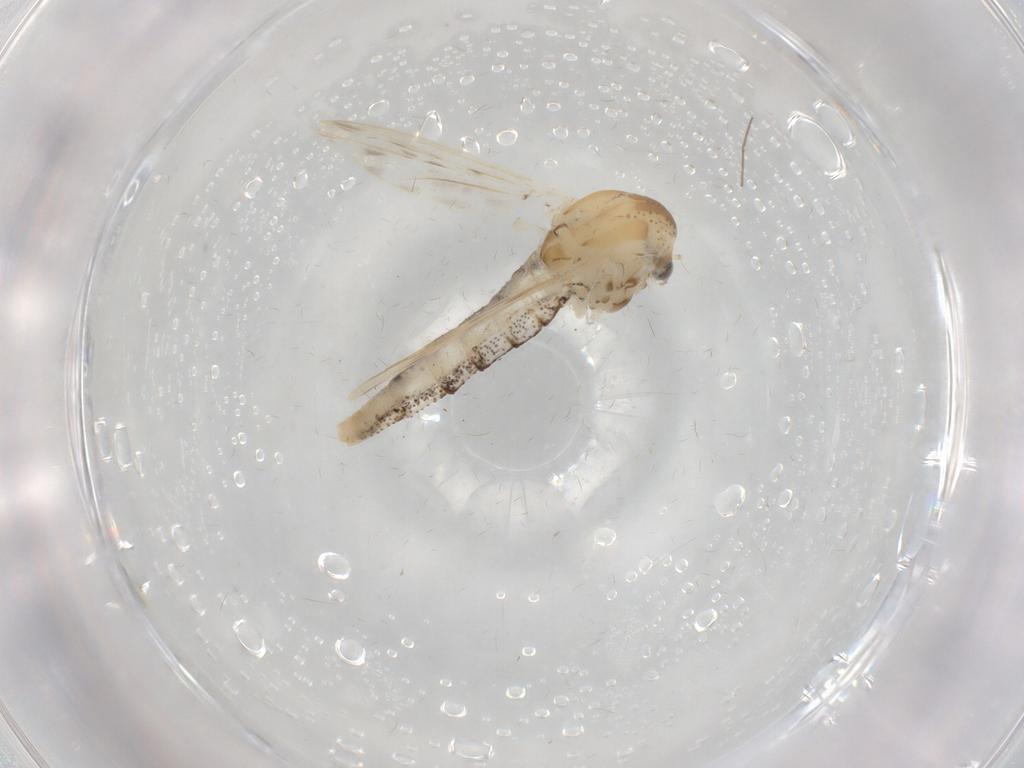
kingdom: Animalia
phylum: Arthropoda
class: Insecta
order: Diptera
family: Chaoboridae
